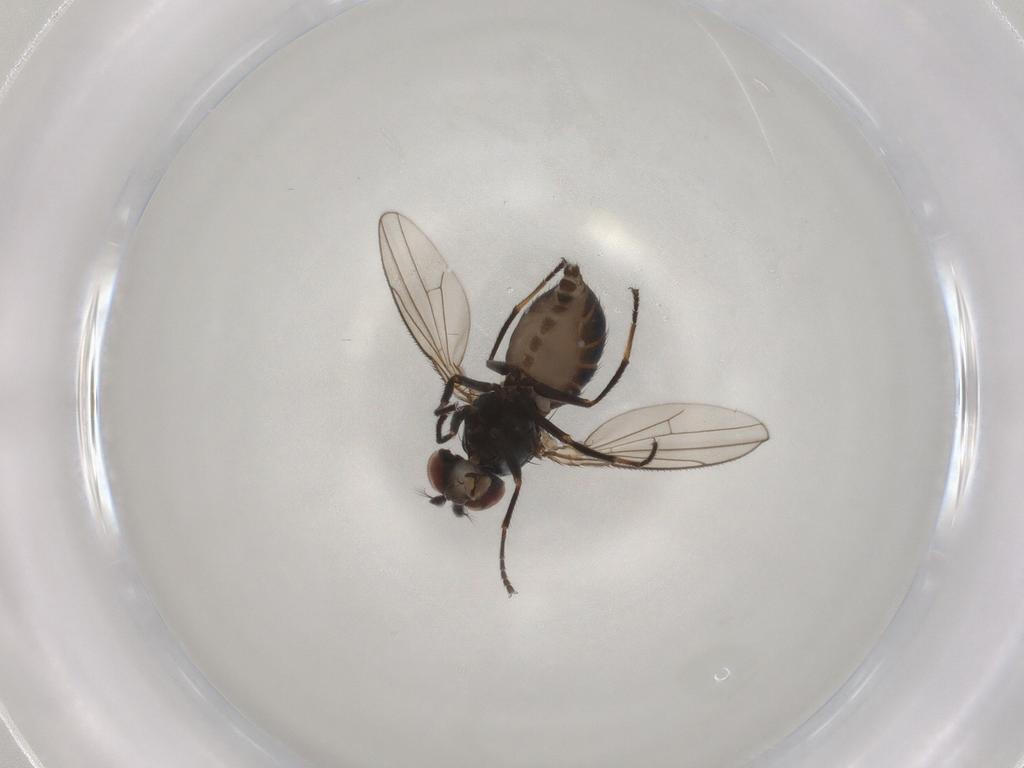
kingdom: Animalia
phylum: Arthropoda
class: Insecta
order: Diptera
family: Ephydridae
